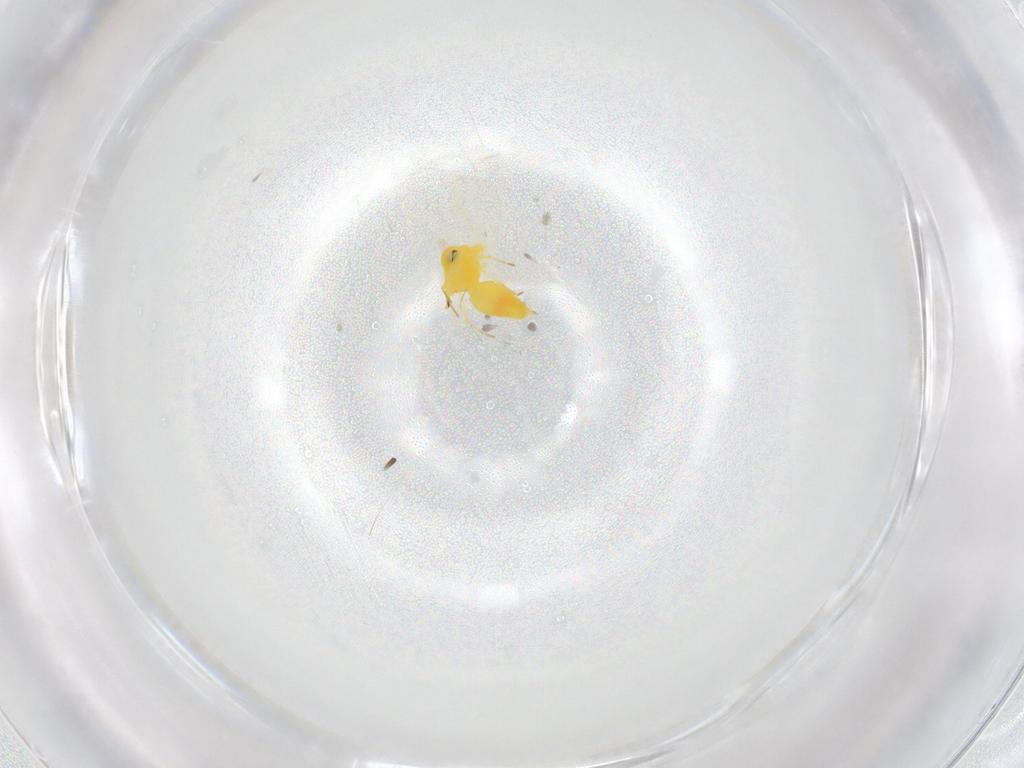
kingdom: Animalia
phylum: Arthropoda
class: Insecta
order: Hemiptera
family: Aleyrodidae
